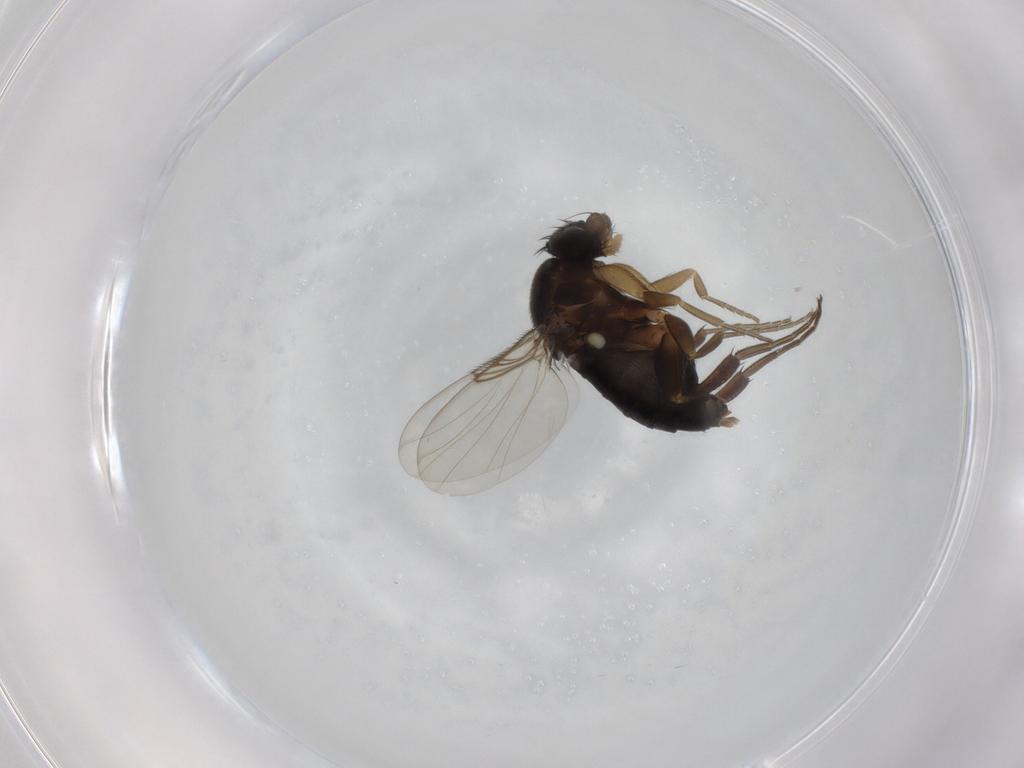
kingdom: Animalia
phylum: Arthropoda
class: Insecta
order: Diptera
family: Phoridae
